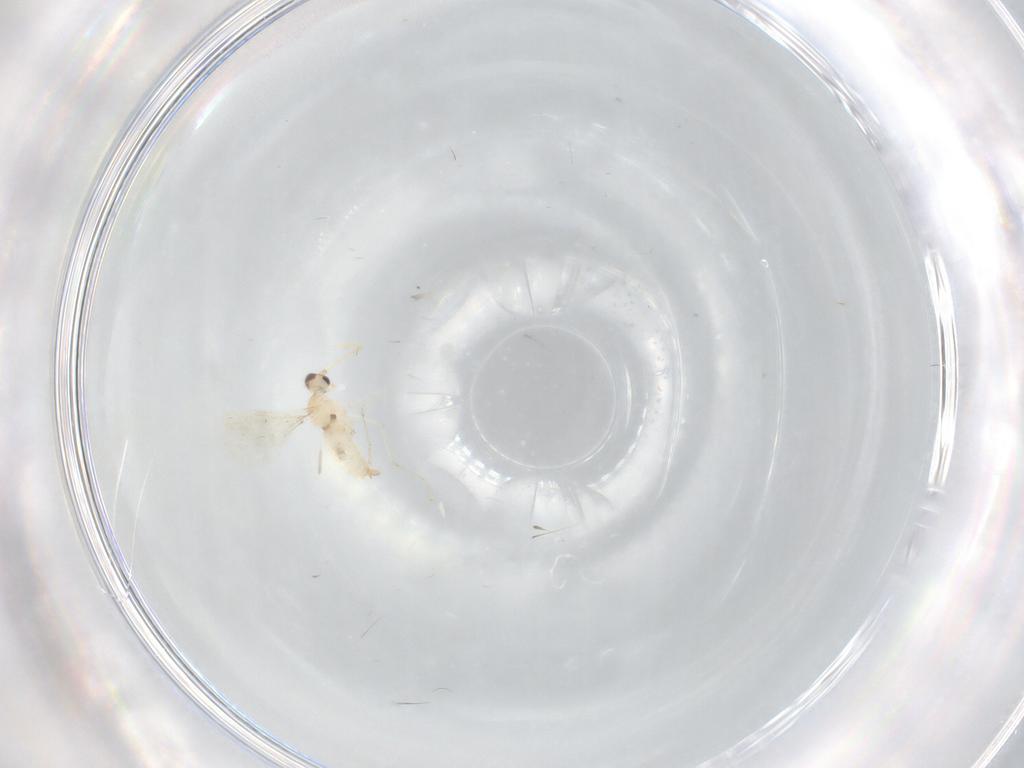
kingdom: Animalia
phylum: Arthropoda
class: Insecta
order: Diptera
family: Cecidomyiidae
